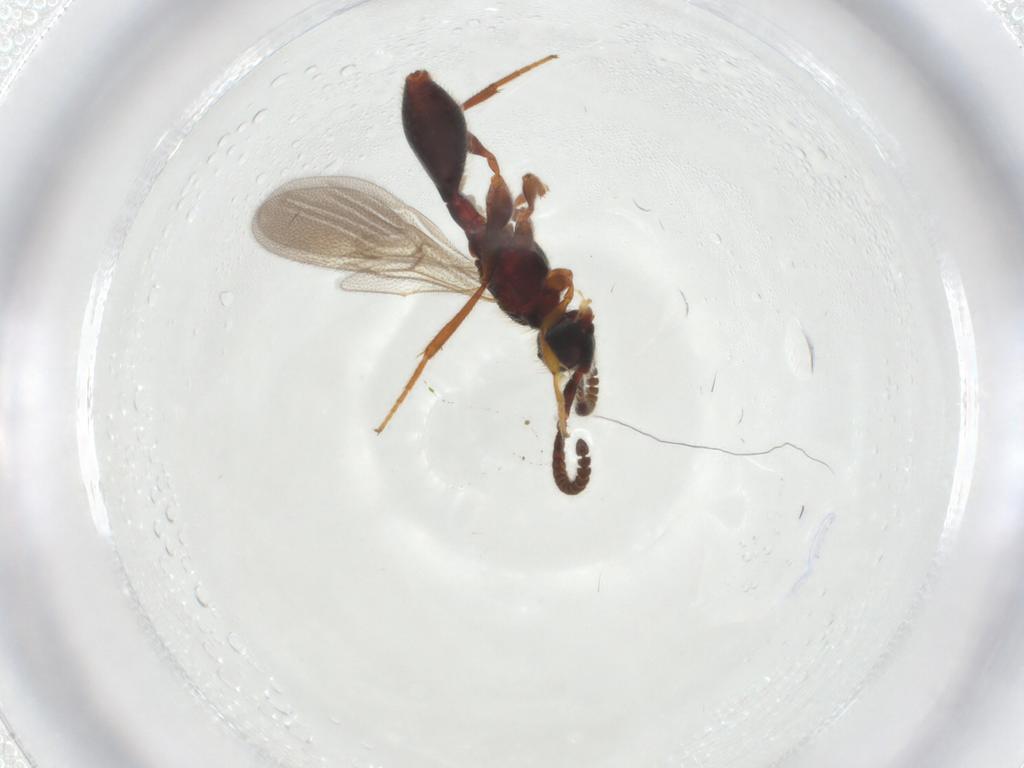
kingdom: Animalia
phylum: Arthropoda
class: Insecta
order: Hymenoptera
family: Diapriidae
